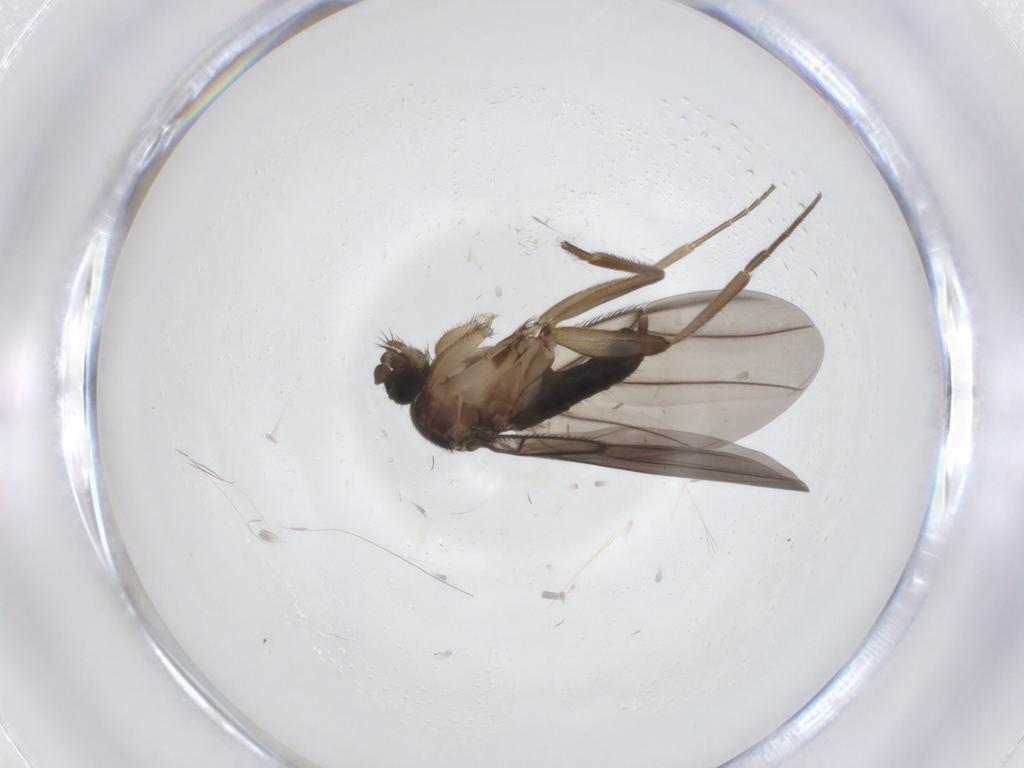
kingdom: Animalia
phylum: Arthropoda
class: Insecta
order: Diptera
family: Phoridae
